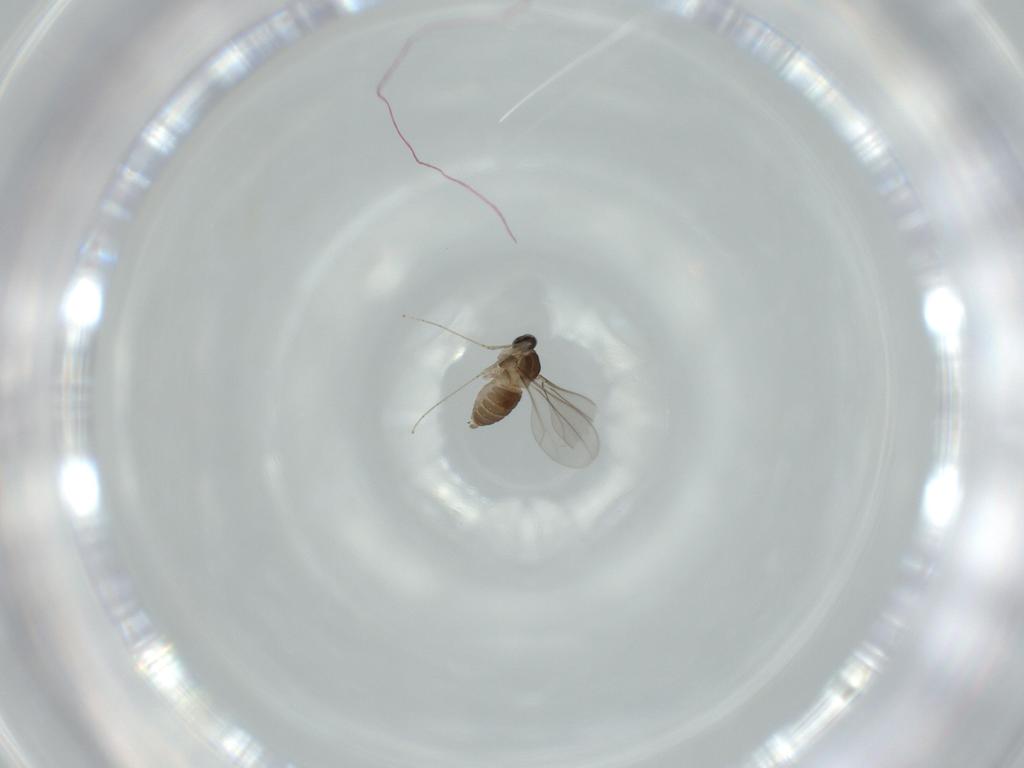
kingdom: Animalia
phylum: Arthropoda
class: Insecta
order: Diptera
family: Cecidomyiidae
